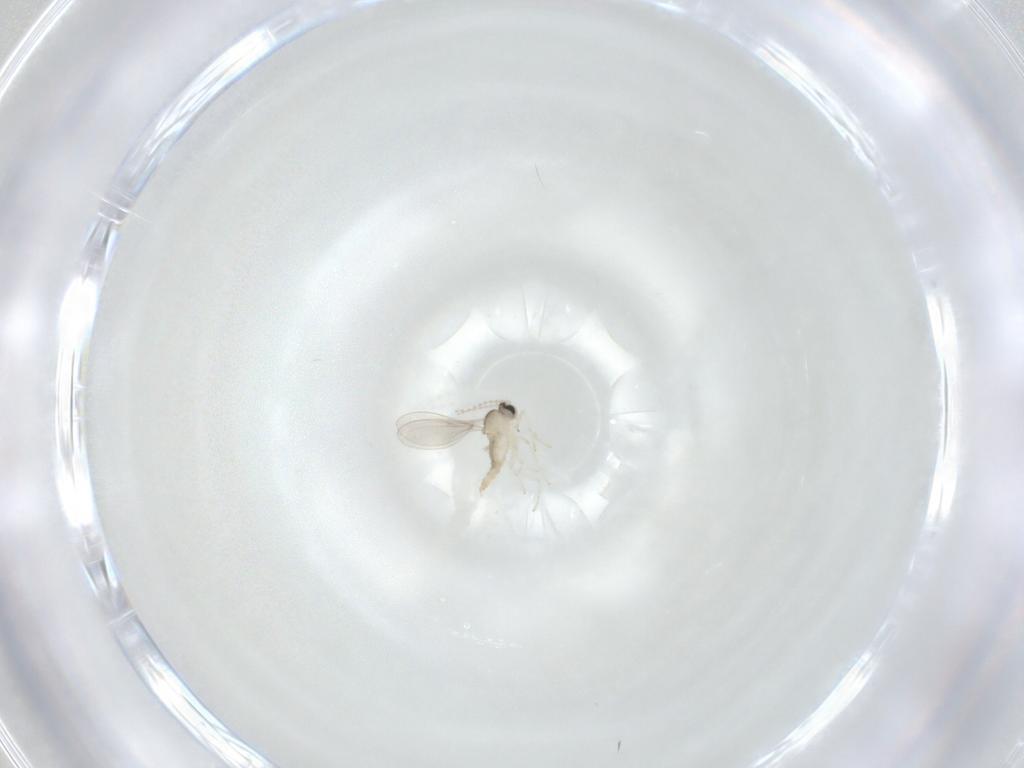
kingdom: Animalia
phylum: Arthropoda
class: Insecta
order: Diptera
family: Cecidomyiidae
